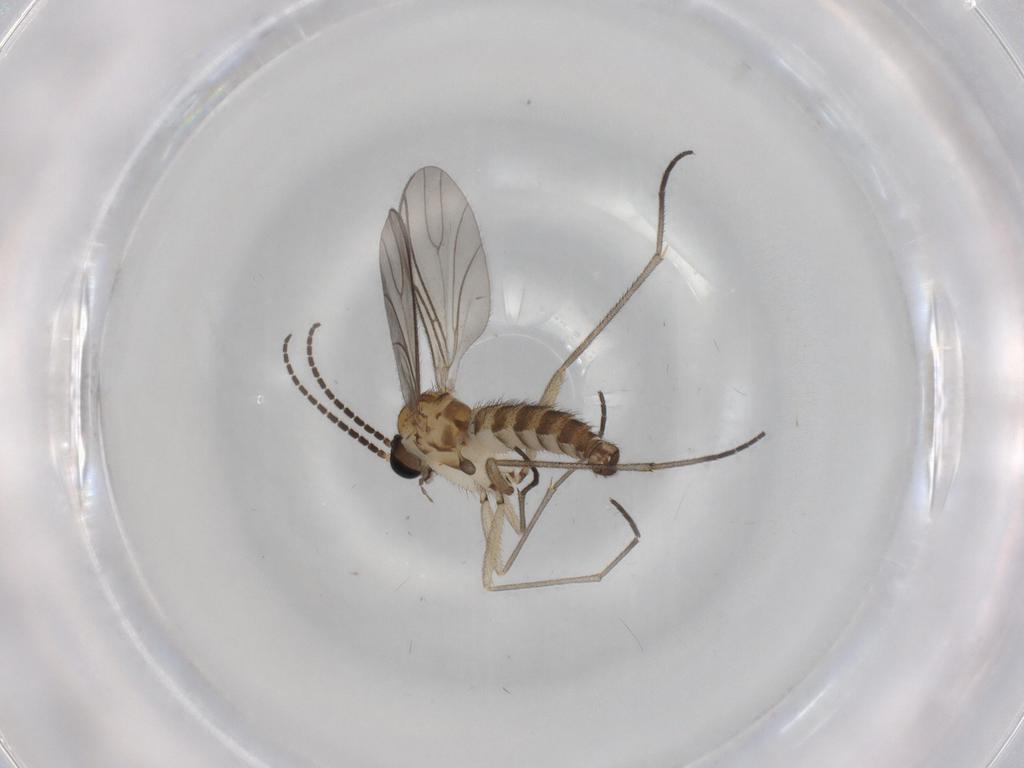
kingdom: Animalia
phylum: Arthropoda
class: Insecta
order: Diptera
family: Sciaridae
